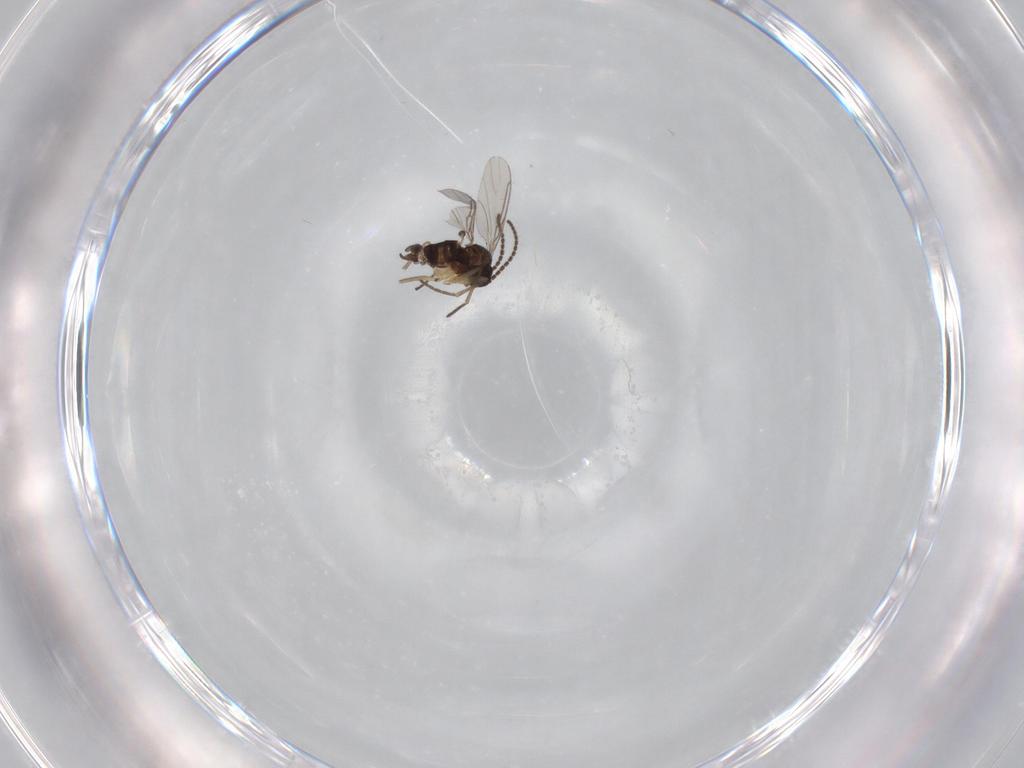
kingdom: Animalia
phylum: Arthropoda
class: Insecta
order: Diptera
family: Sciaridae
